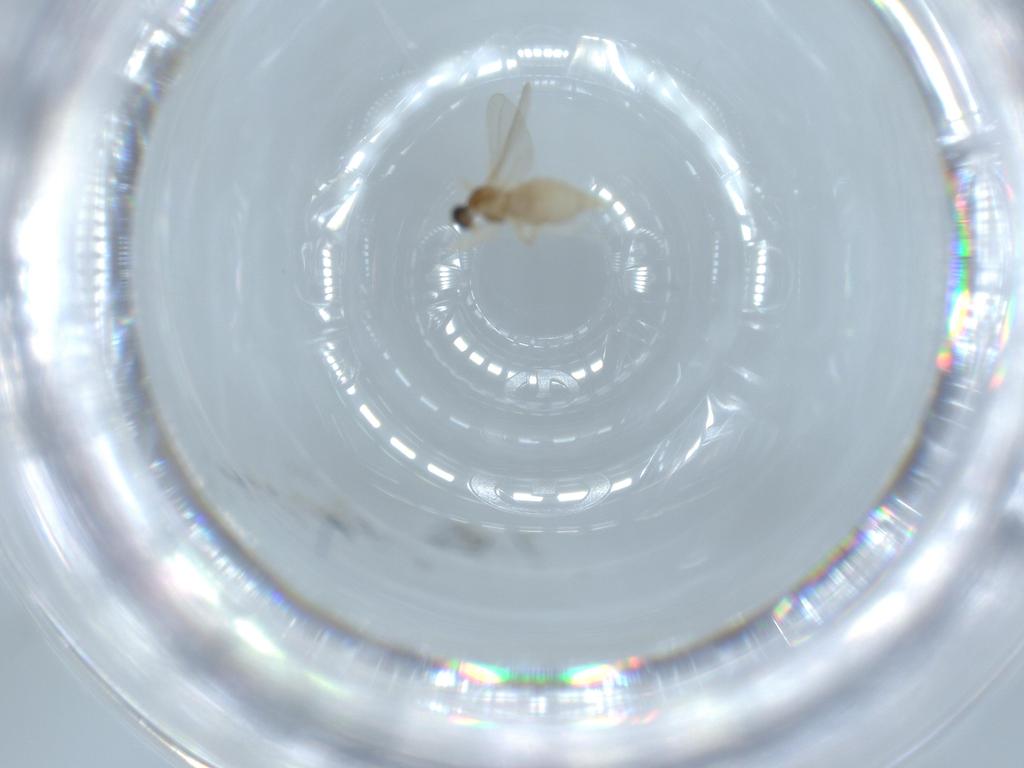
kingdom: Animalia
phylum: Arthropoda
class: Insecta
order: Diptera
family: Cecidomyiidae
